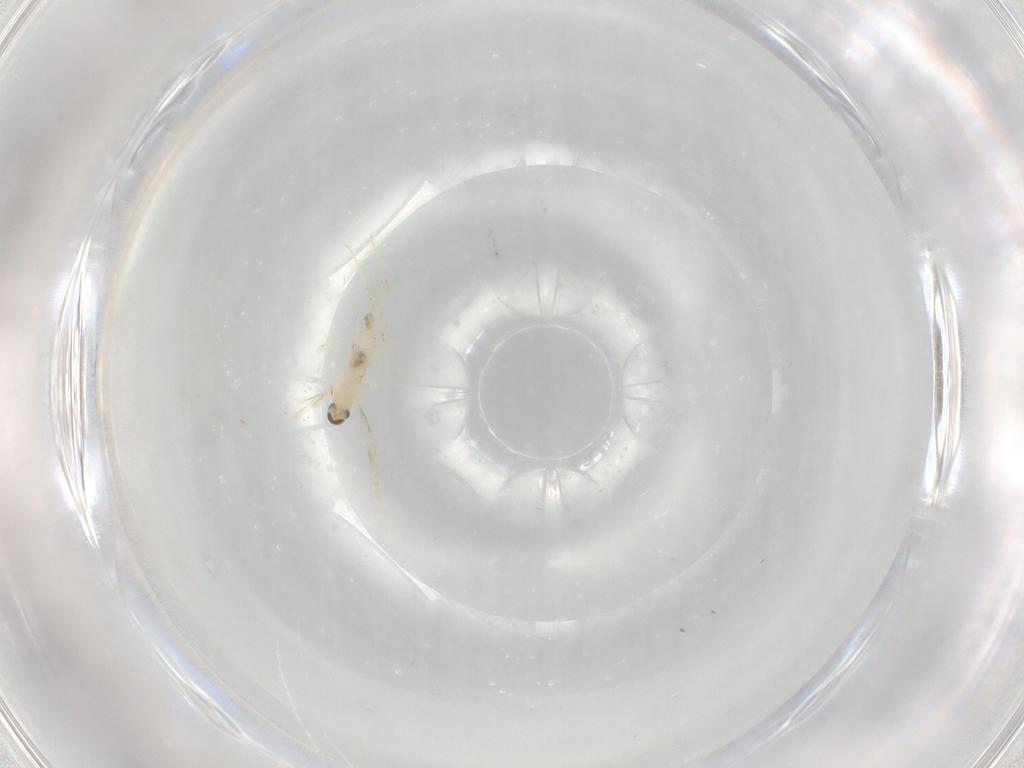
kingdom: Animalia
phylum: Arthropoda
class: Insecta
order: Diptera
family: Cecidomyiidae
